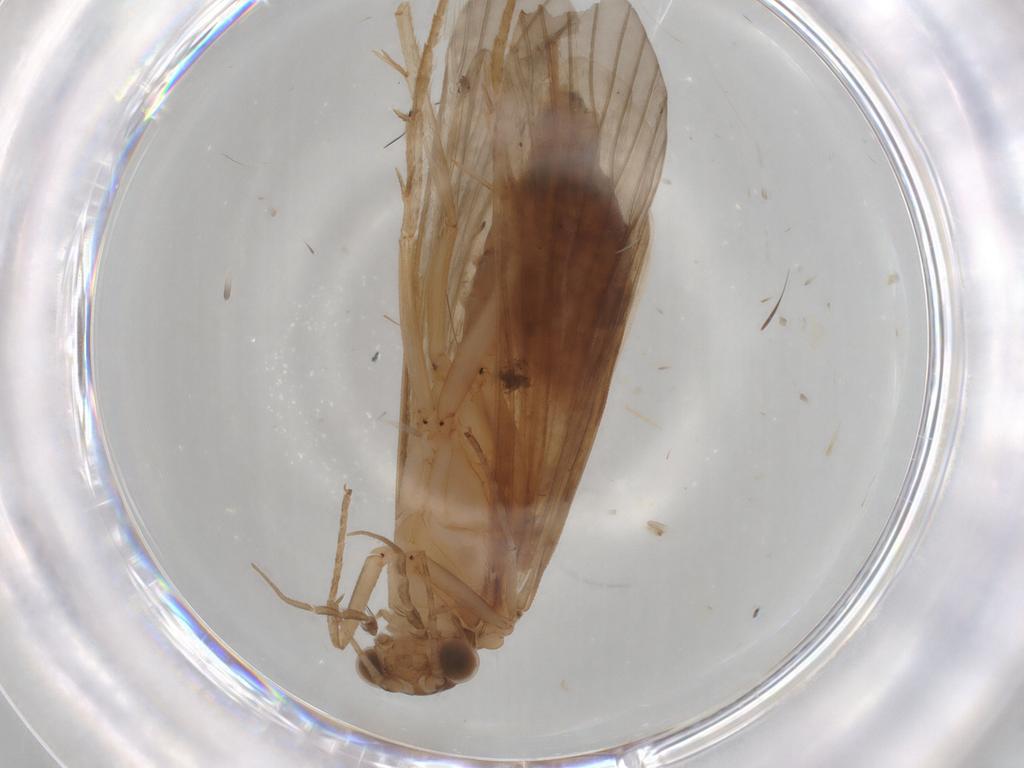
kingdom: Animalia
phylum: Arthropoda
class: Insecta
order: Trichoptera
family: Hydropsychidae
